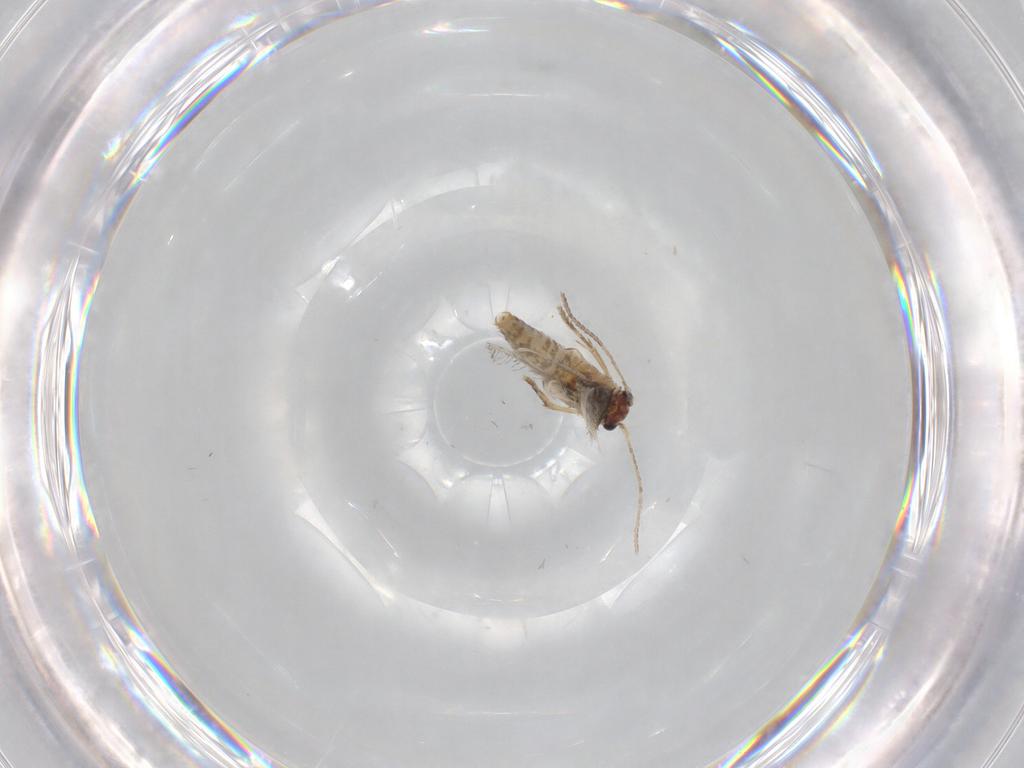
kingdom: Animalia
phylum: Arthropoda
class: Insecta
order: Lepidoptera
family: Nepticulidae
